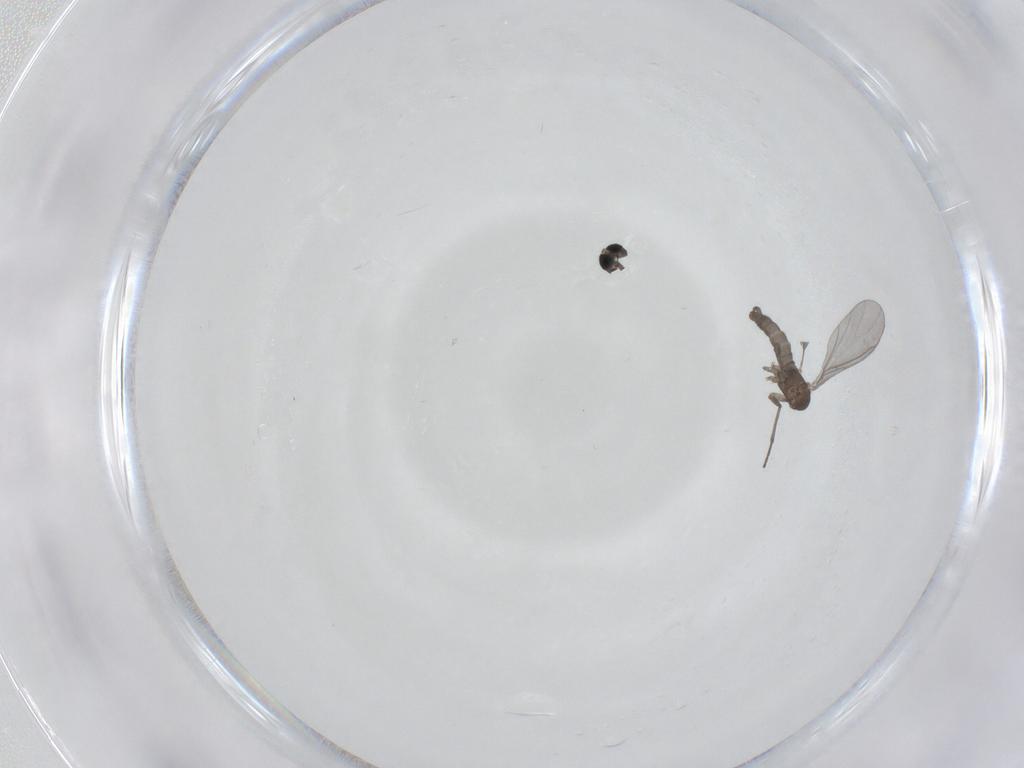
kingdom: Animalia
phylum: Arthropoda
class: Insecta
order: Diptera
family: Sciaridae
